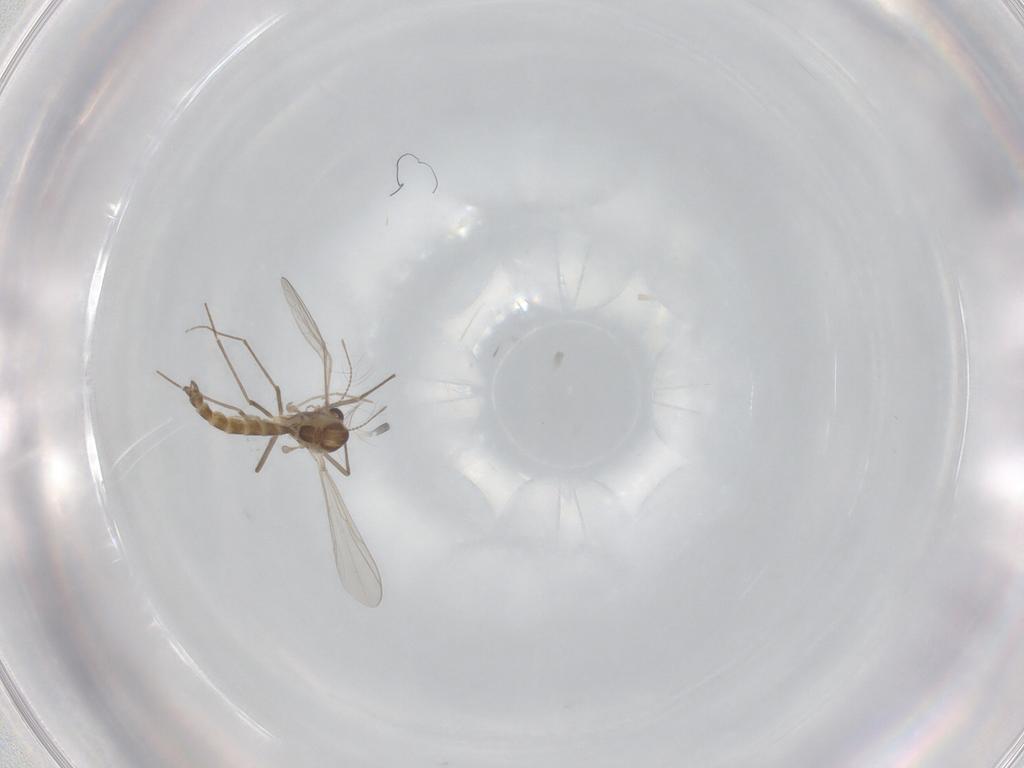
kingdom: Animalia
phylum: Arthropoda
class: Insecta
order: Diptera
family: Chironomidae
